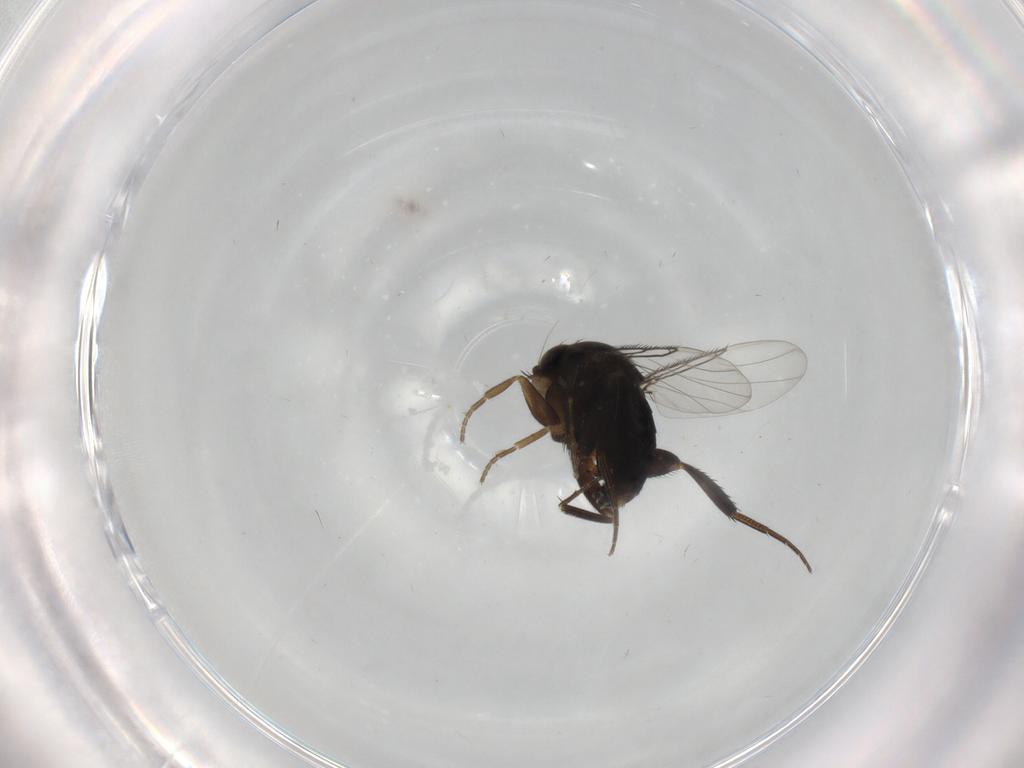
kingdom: Animalia
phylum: Arthropoda
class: Insecta
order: Diptera
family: Phoridae
